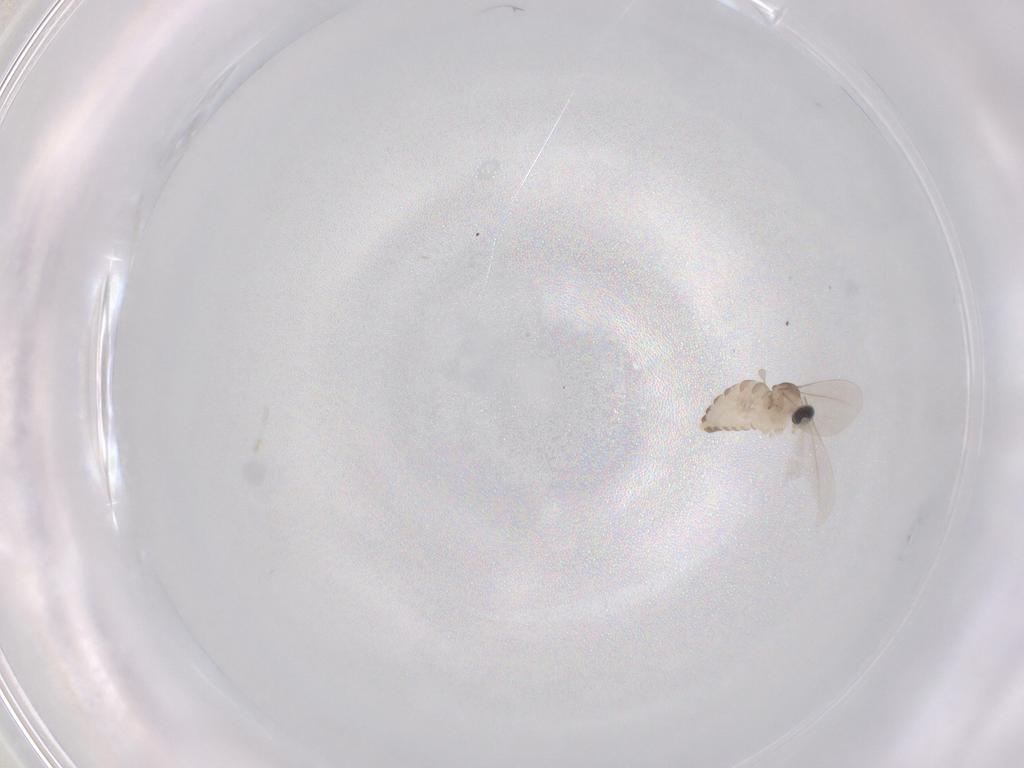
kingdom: Animalia
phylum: Arthropoda
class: Insecta
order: Diptera
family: Cecidomyiidae
